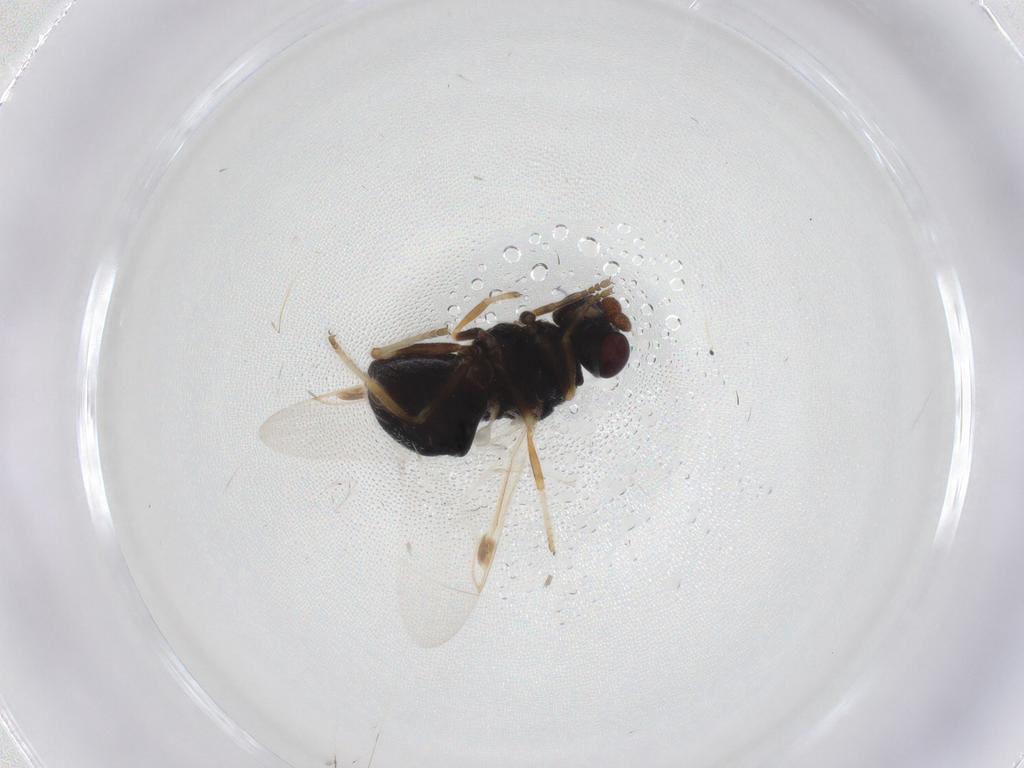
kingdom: Animalia
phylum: Arthropoda
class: Insecta
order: Diptera
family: Stratiomyidae
